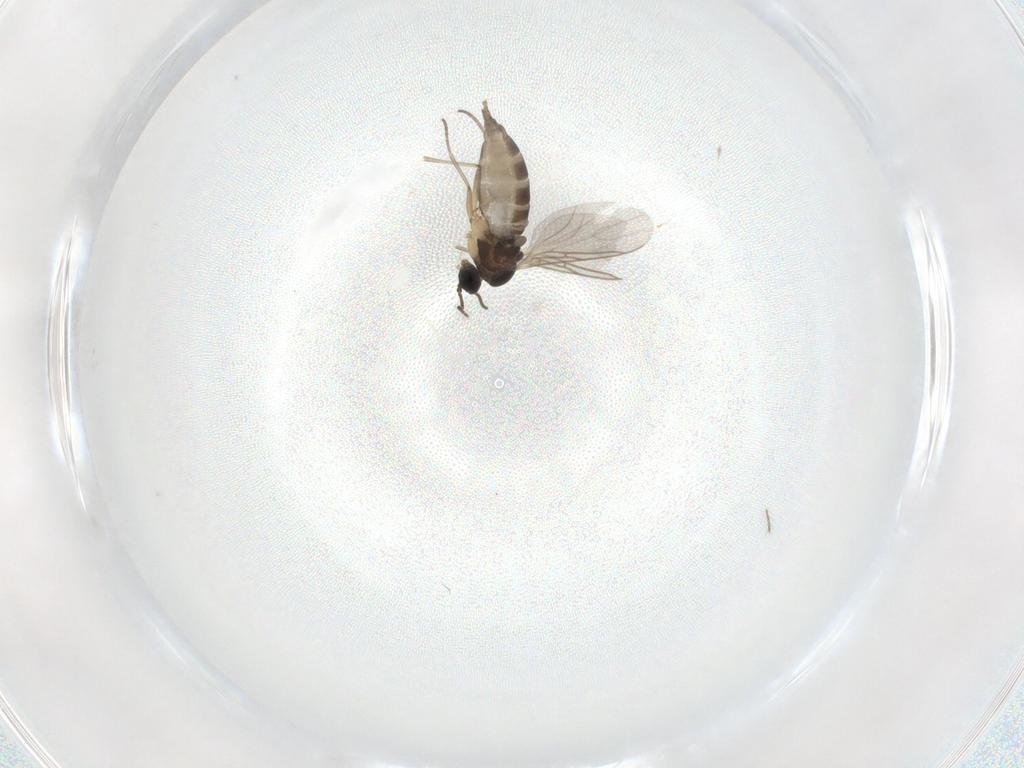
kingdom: Animalia
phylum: Arthropoda
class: Insecta
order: Diptera
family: Sciaridae
